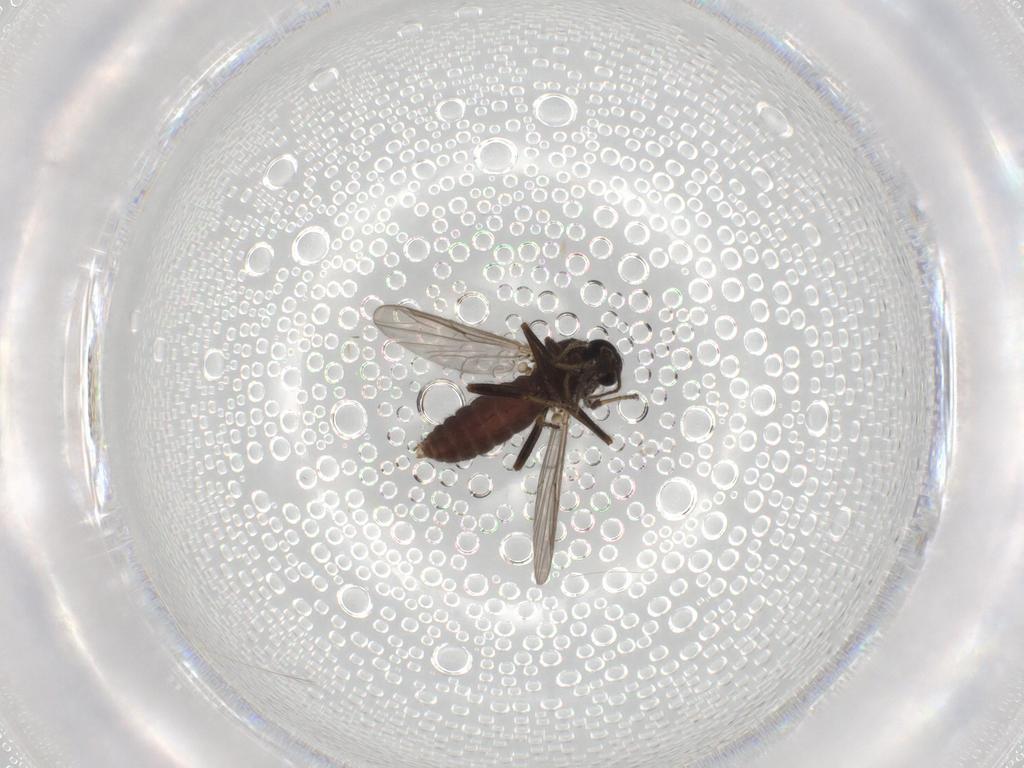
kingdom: Animalia
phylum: Arthropoda
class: Insecta
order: Diptera
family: Ceratopogonidae
